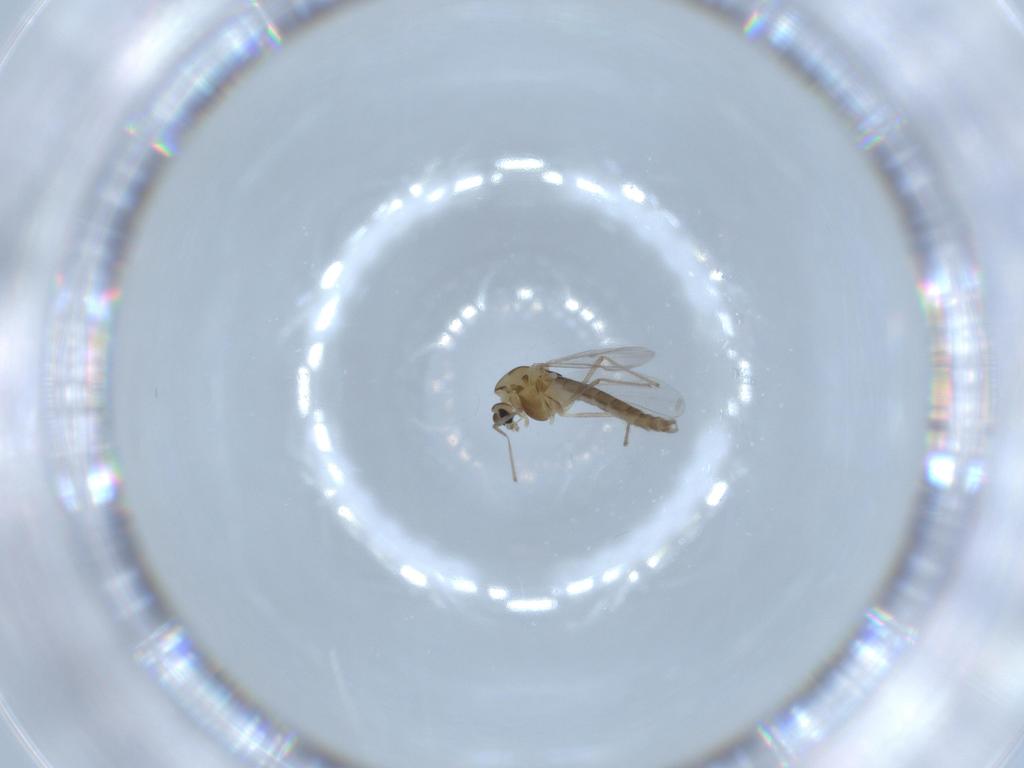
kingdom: Animalia
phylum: Arthropoda
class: Insecta
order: Diptera
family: Chironomidae
